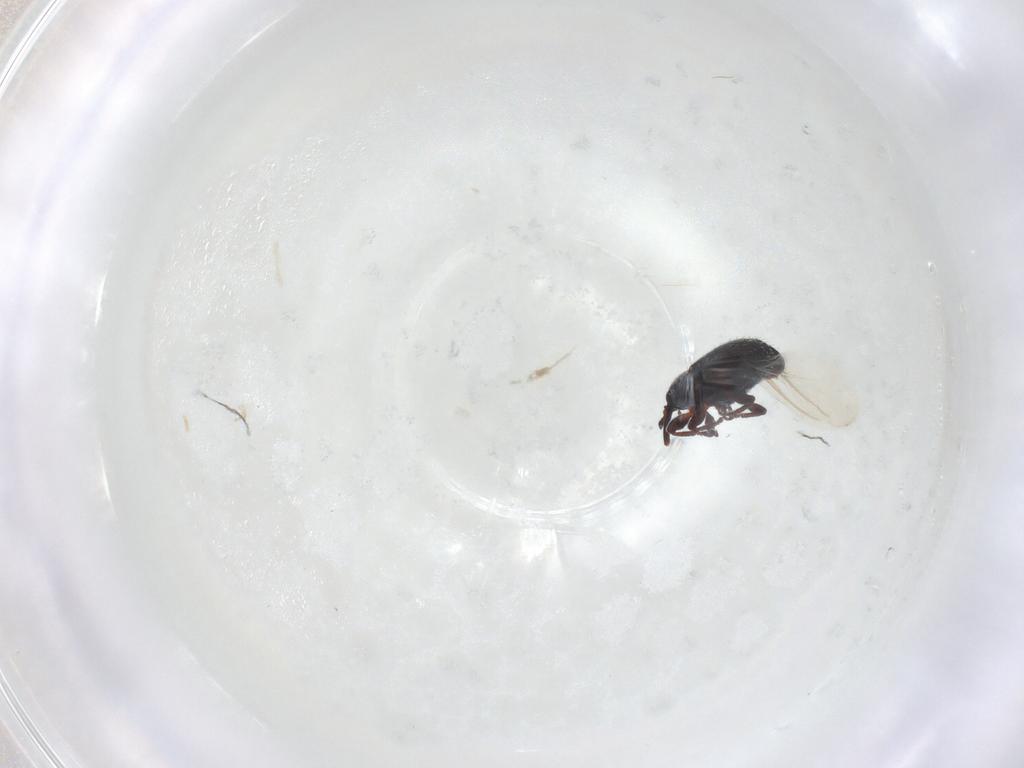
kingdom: Animalia
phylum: Arthropoda
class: Insecta
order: Coleoptera
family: Curculionidae
